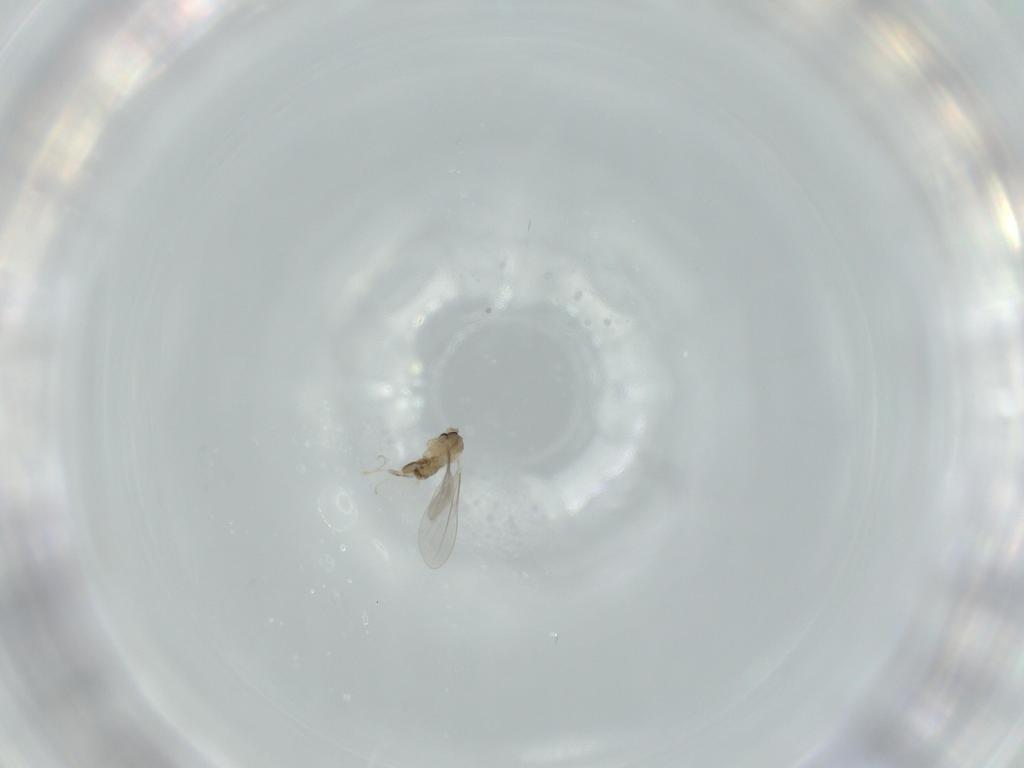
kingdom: Animalia
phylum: Arthropoda
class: Insecta
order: Diptera
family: Cecidomyiidae
